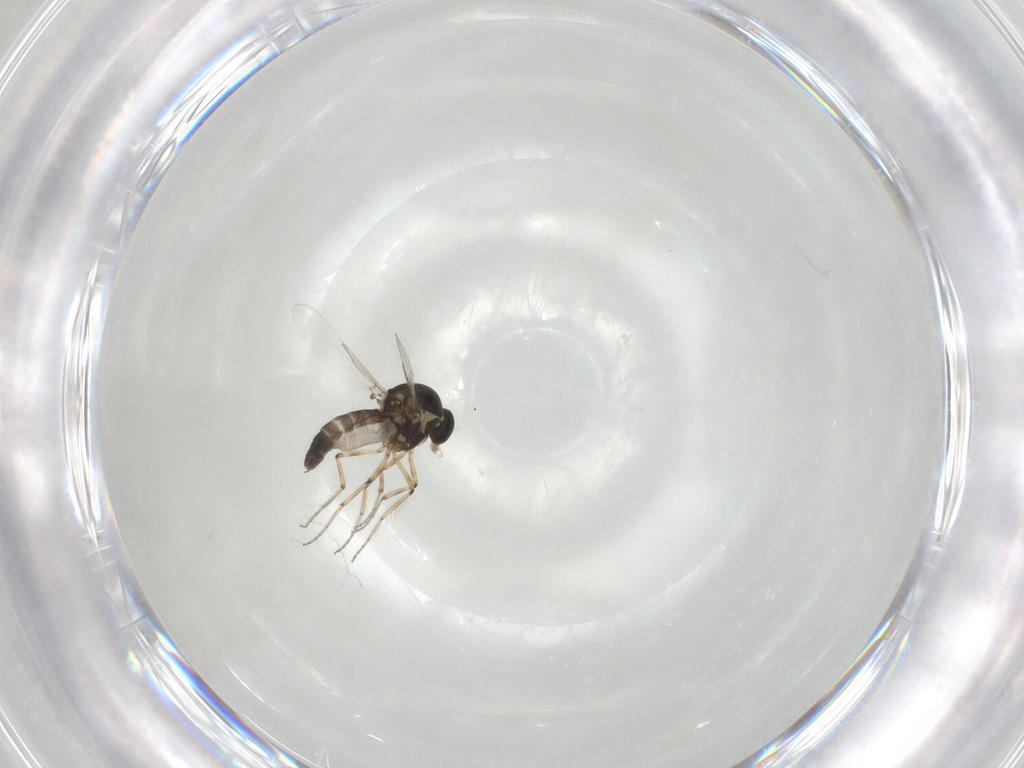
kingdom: Animalia
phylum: Arthropoda
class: Insecta
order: Diptera
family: Ceratopogonidae
